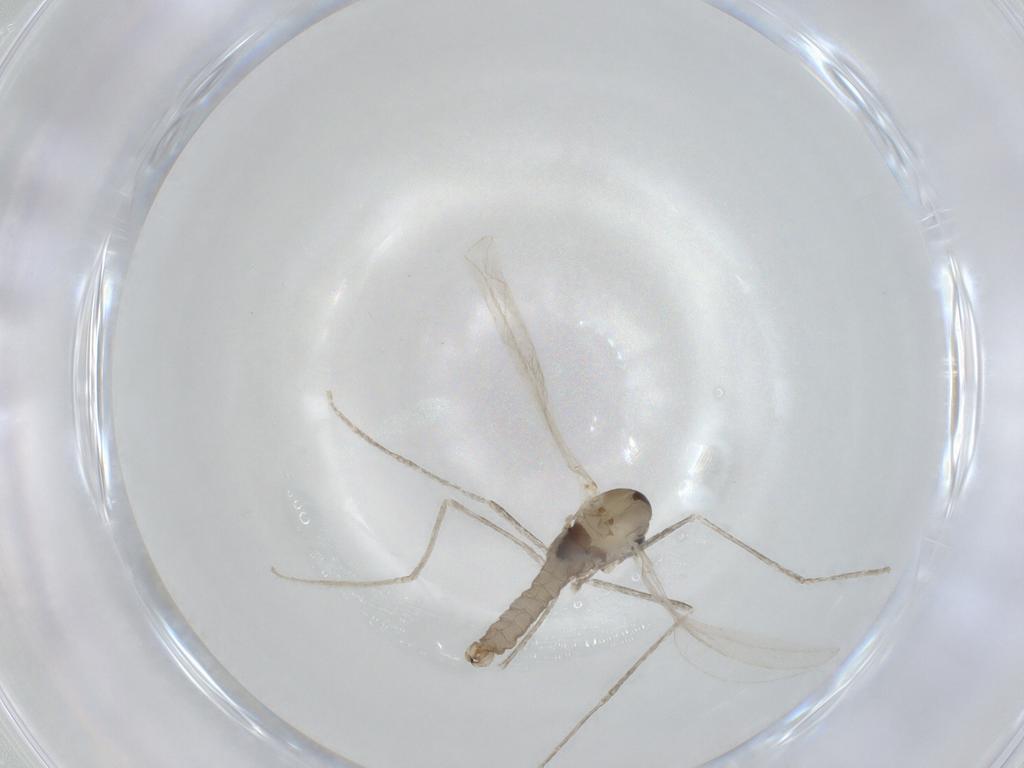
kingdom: Animalia
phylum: Arthropoda
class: Insecta
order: Diptera
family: Cecidomyiidae
